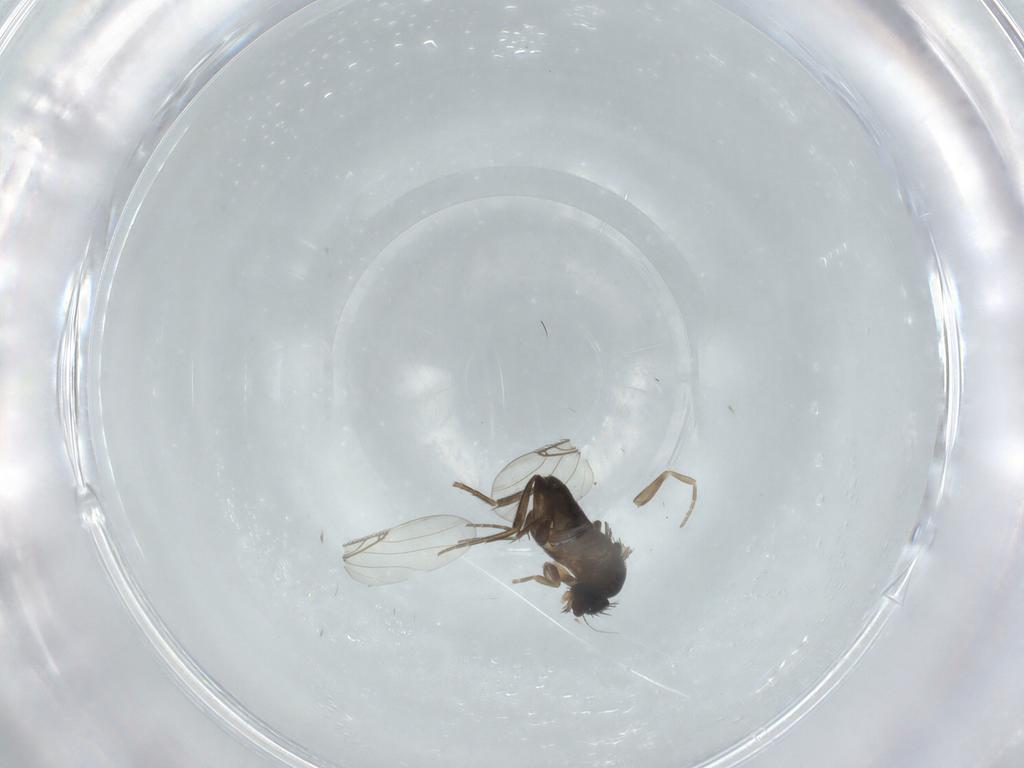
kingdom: Animalia
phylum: Arthropoda
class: Insecta
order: Diptera
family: Phoridae
